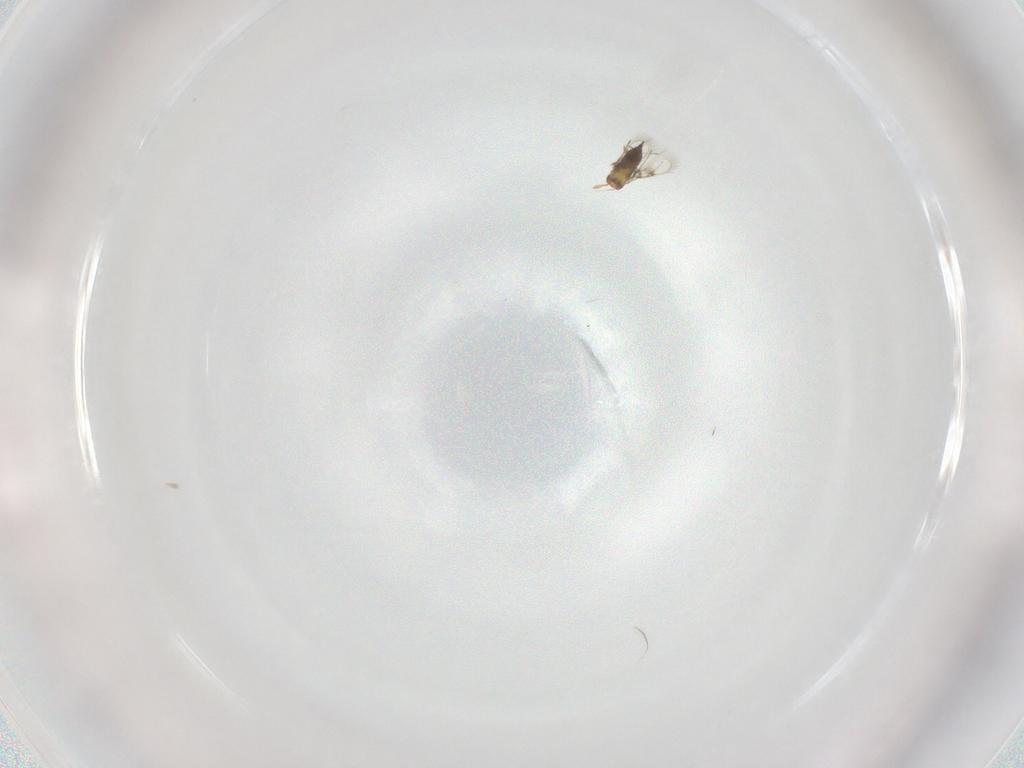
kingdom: Animalia
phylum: Arthropoda
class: Insecta
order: Hymenoptera
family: Trichogrammatidae
